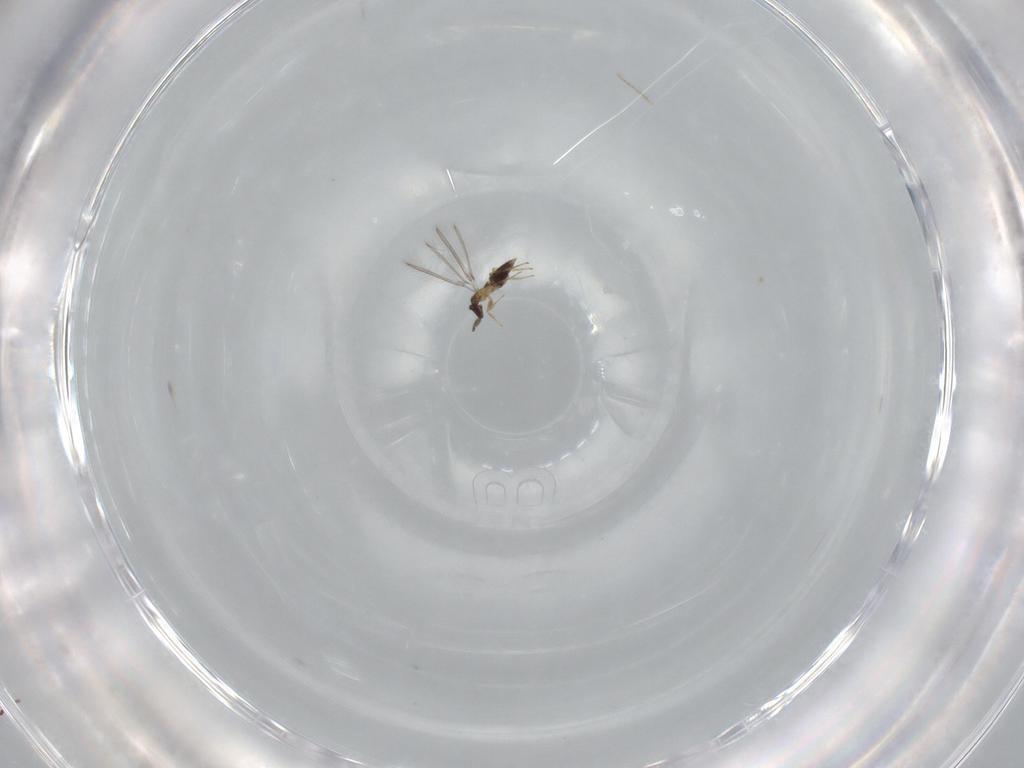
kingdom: Animalia
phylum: Arthropoda
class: Insecta
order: Hymenoptera
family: Mymaridae
